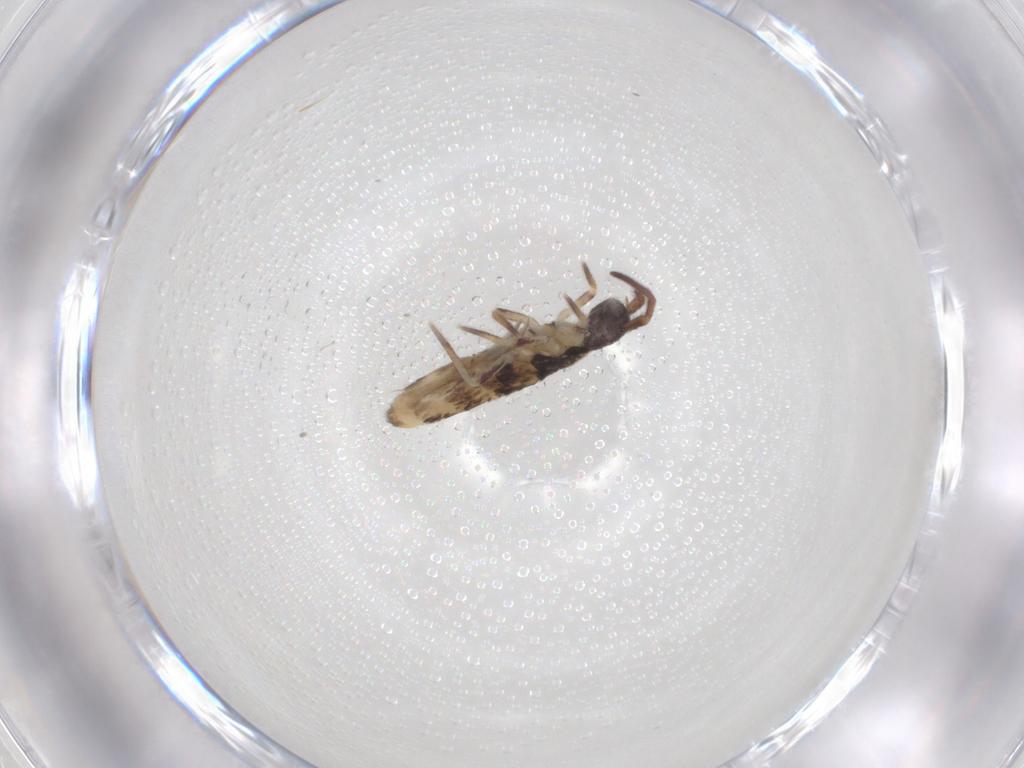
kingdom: Animalia
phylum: Arthropoda
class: Collembola
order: Entomobryomorpha
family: Entomobryidae
